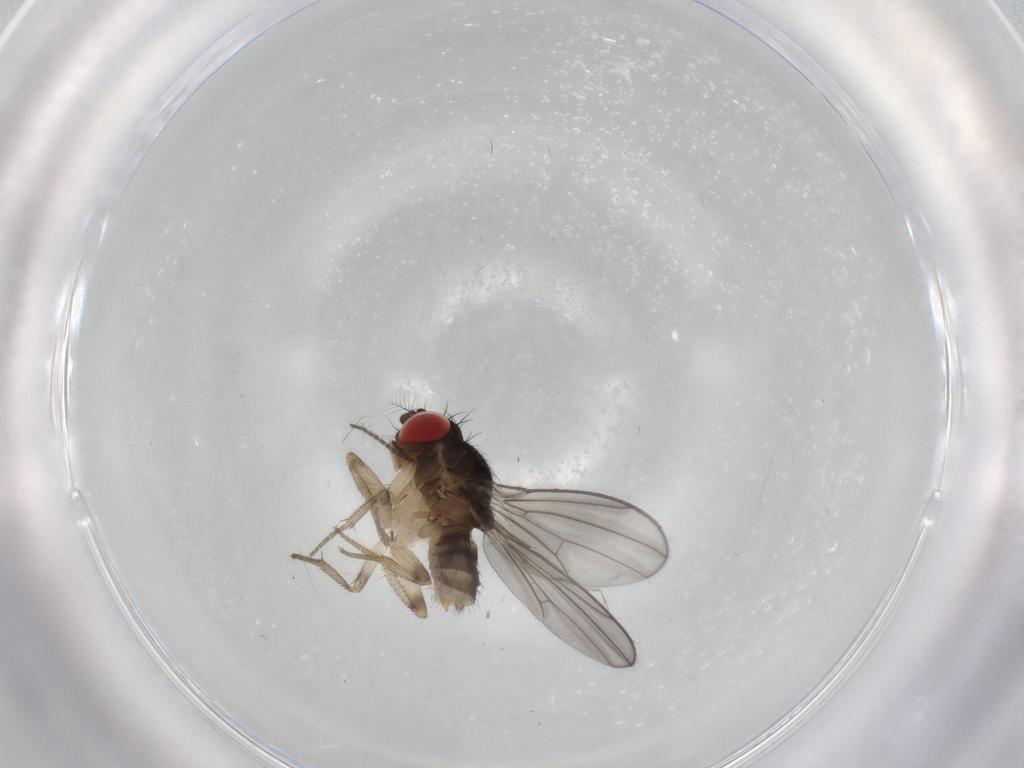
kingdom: Animalia
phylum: Arthropoda
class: Insecta
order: Diptera
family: Drosophilidae
